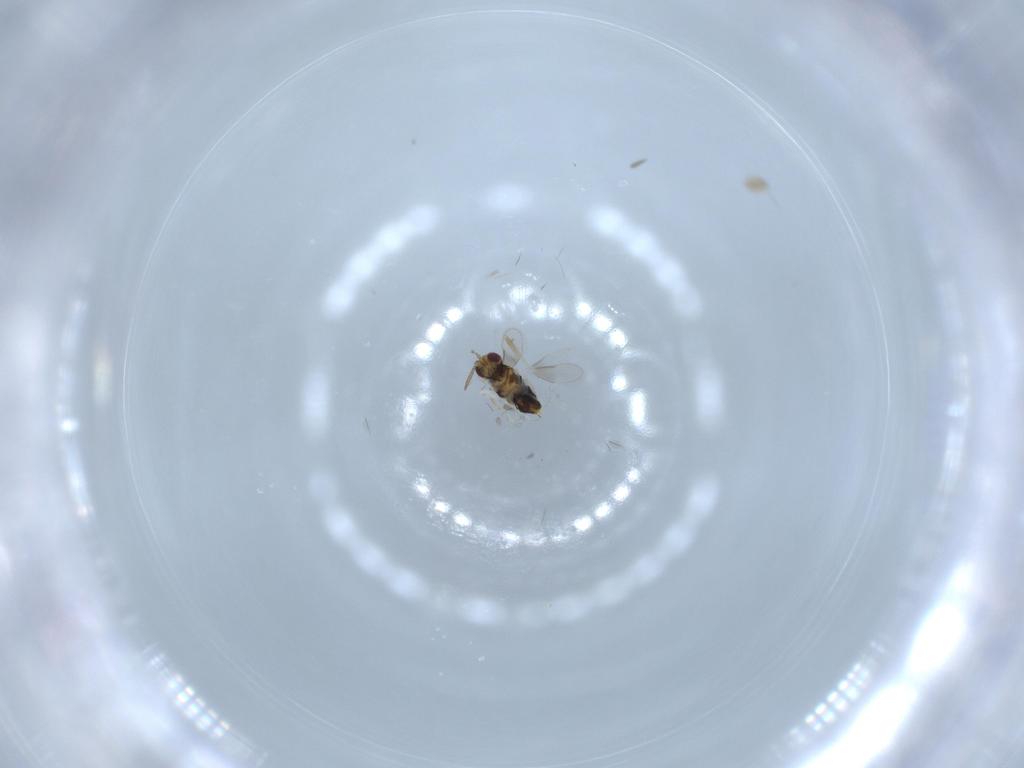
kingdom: Animalia
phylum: Arthropoda
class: Insecta
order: Hymenoptera
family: Aphelinidae
